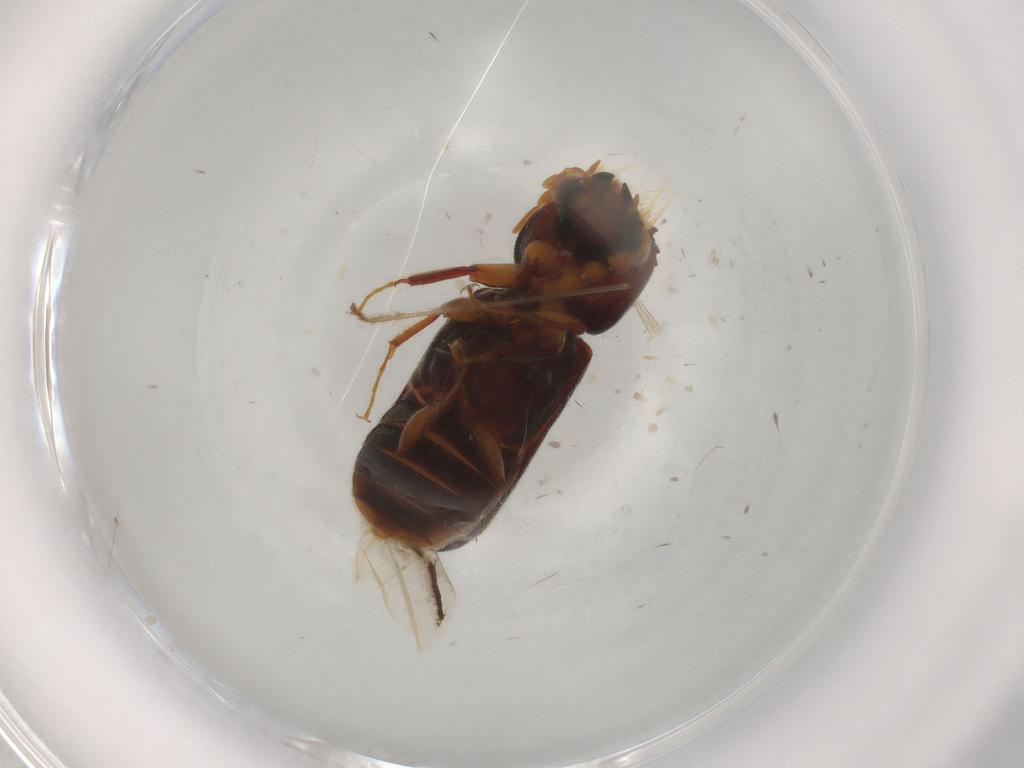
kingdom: Animalia
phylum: Arthropoda
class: Insecta
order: Coleoptera
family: Bostrichidae
